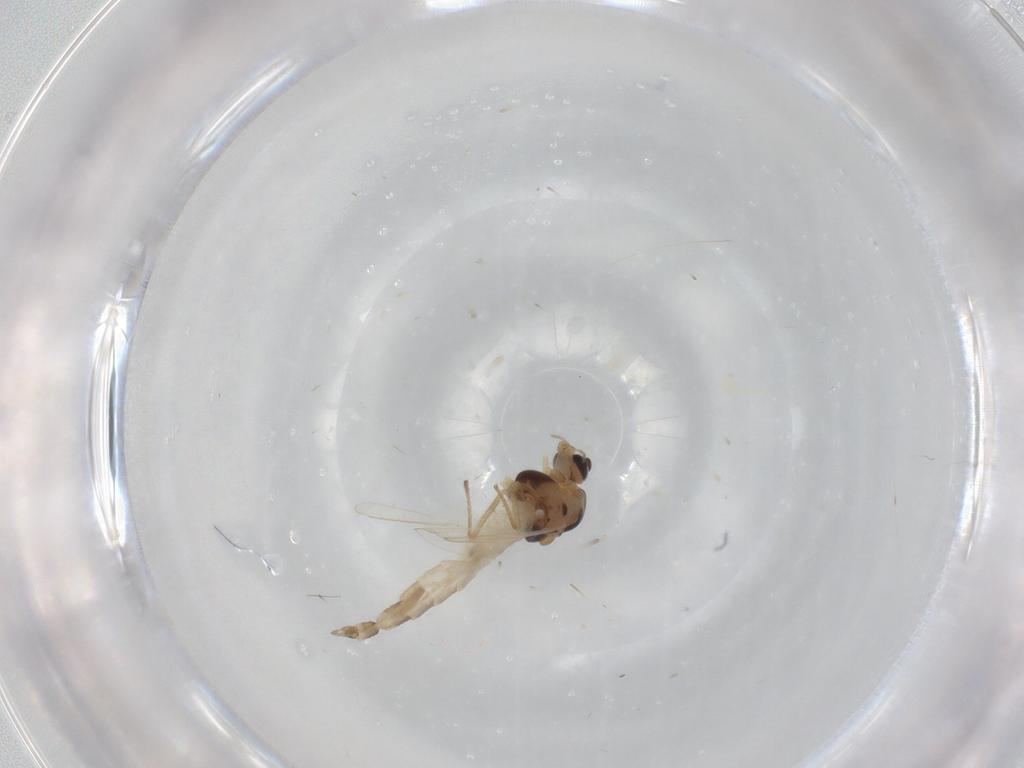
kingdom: Animalia
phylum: Arthropoda
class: Insecta
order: Diptera
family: Chironomidae
